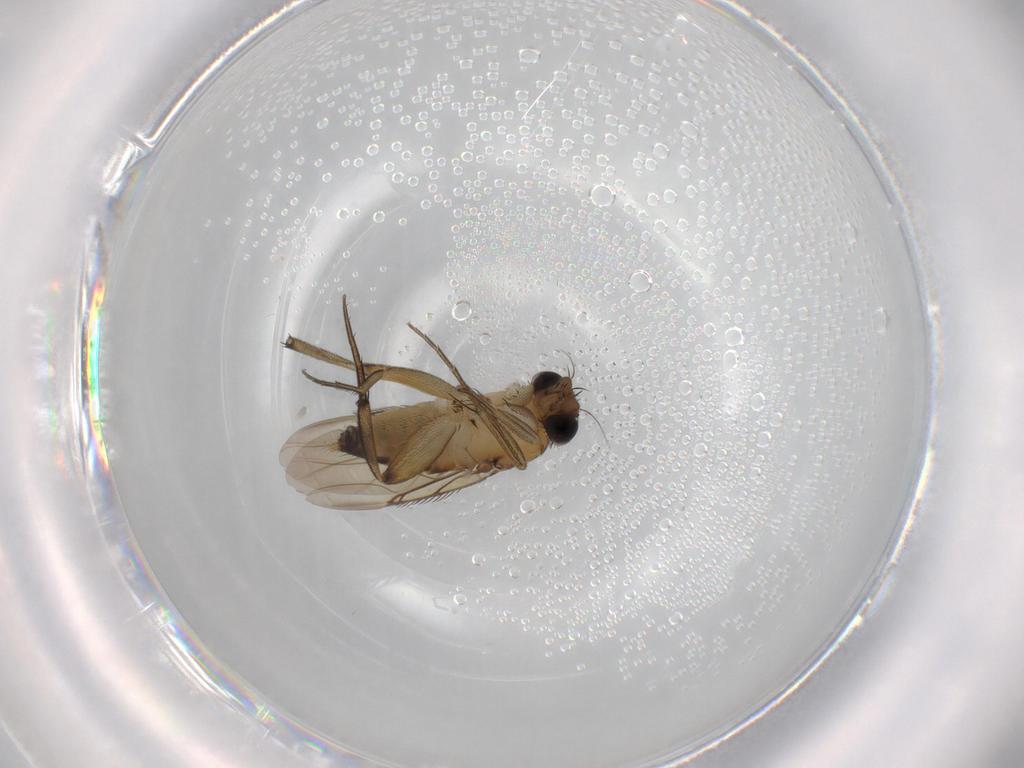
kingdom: Animalia
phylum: Arthropoda
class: Insecta
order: Diptera
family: Phoridae
